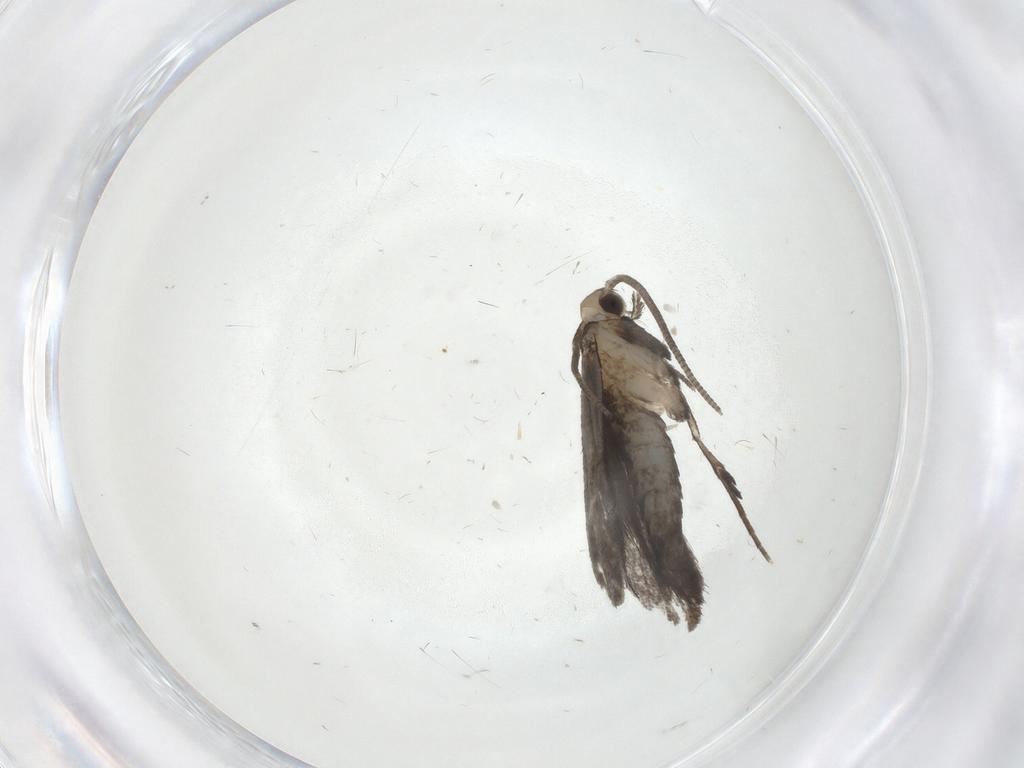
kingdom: Animalia
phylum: Arthropoda
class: Insecta
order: Lepidoptera
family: Nymphalidae
